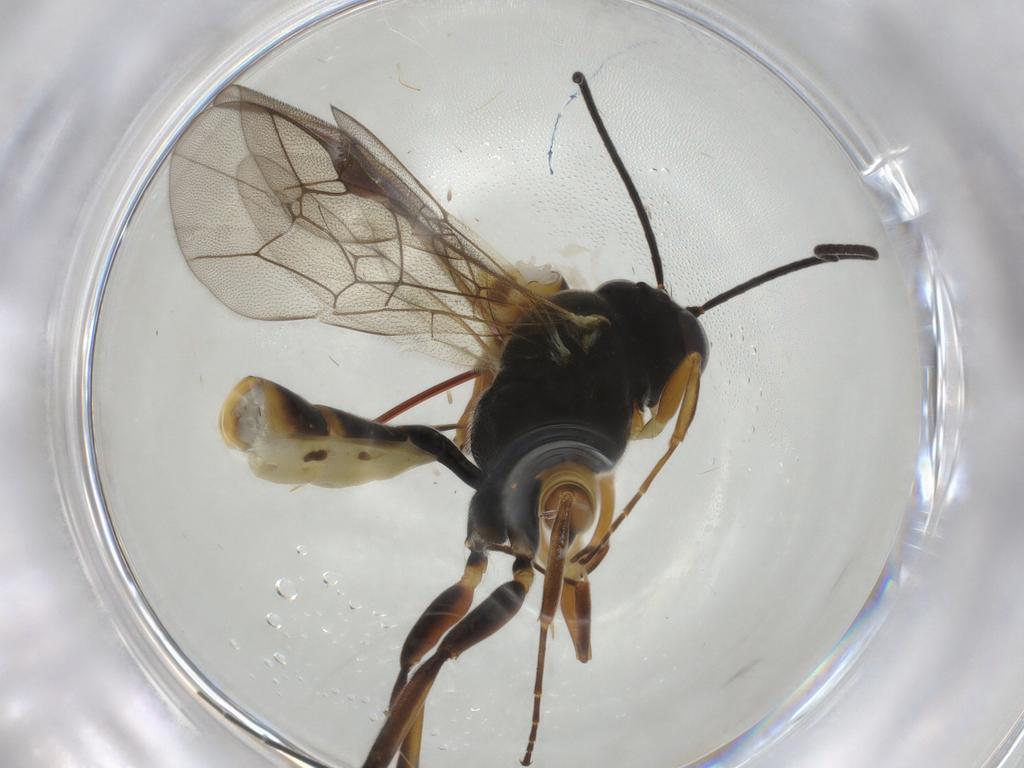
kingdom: Animalia
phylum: Arthropoda
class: Insecta
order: Hymenoptera
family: Ichneumonidae
